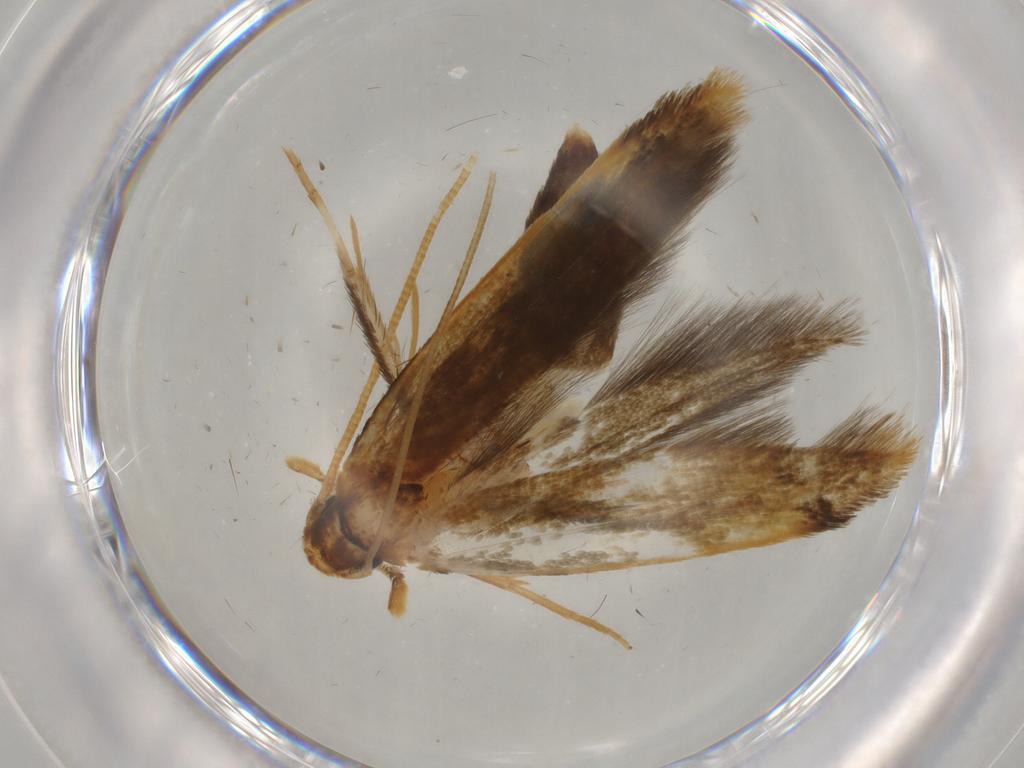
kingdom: Animalia
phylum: Arthropoda
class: Insecta
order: Lepidoptera
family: Tineidae
